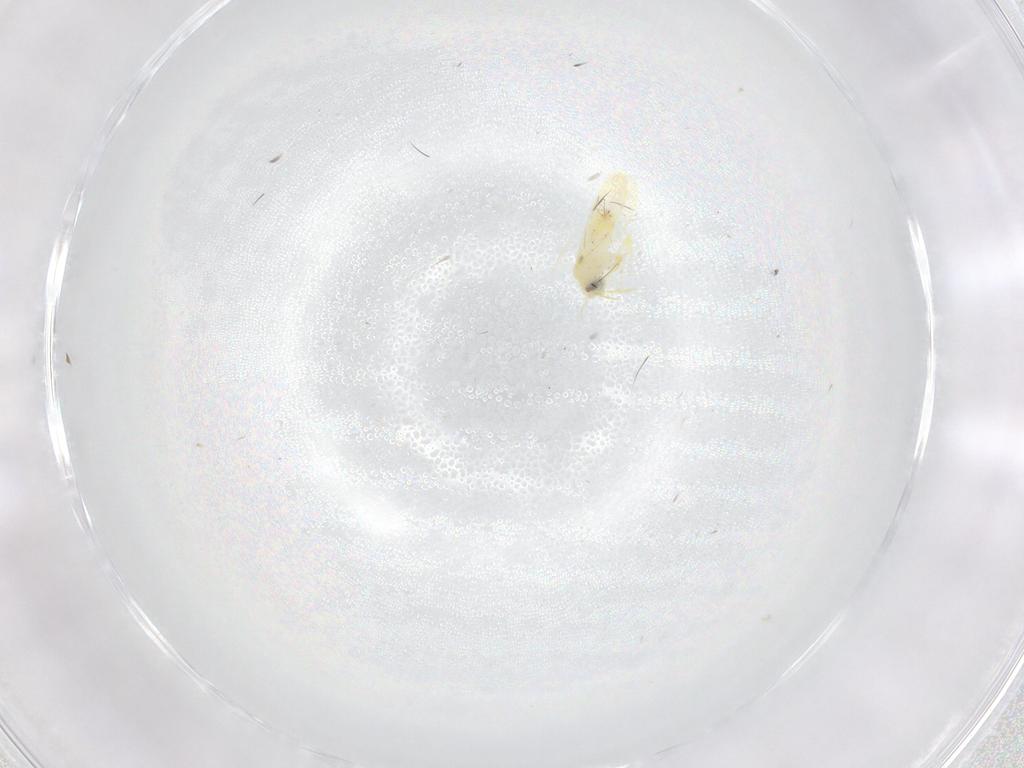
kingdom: Animalia
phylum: Arthropoda
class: Insecta
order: Hemiptera
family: Aleyrodidae
